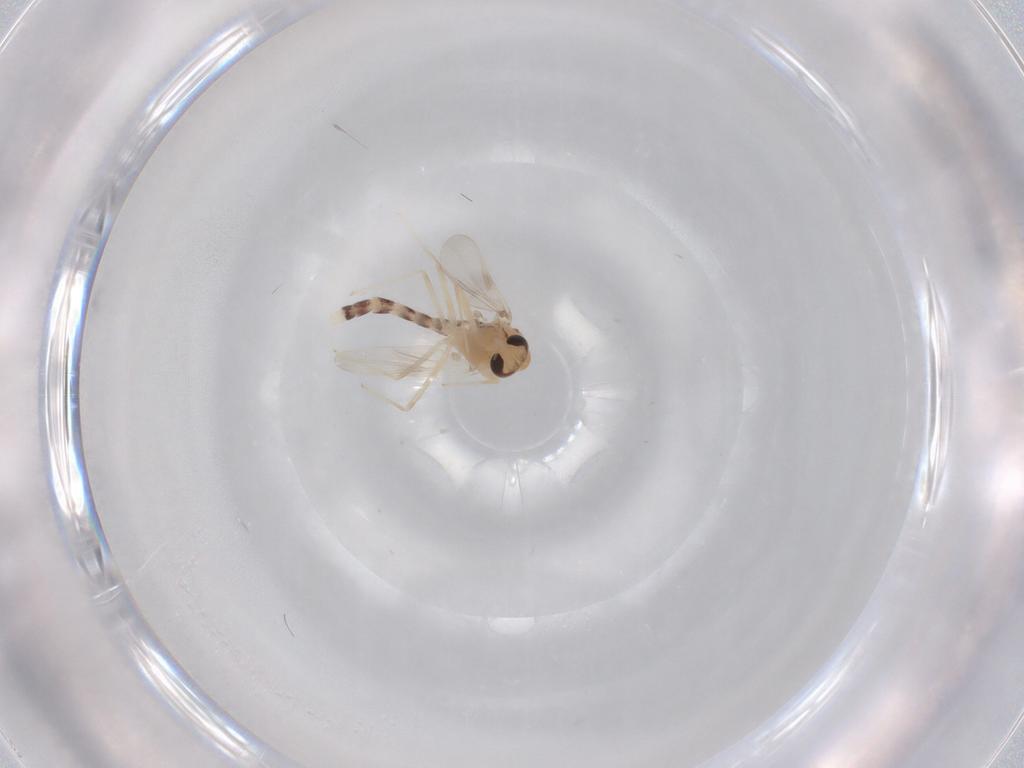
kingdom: Animalia
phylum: Arthropoda
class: Insecta
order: Diptera
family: Chironomidae
